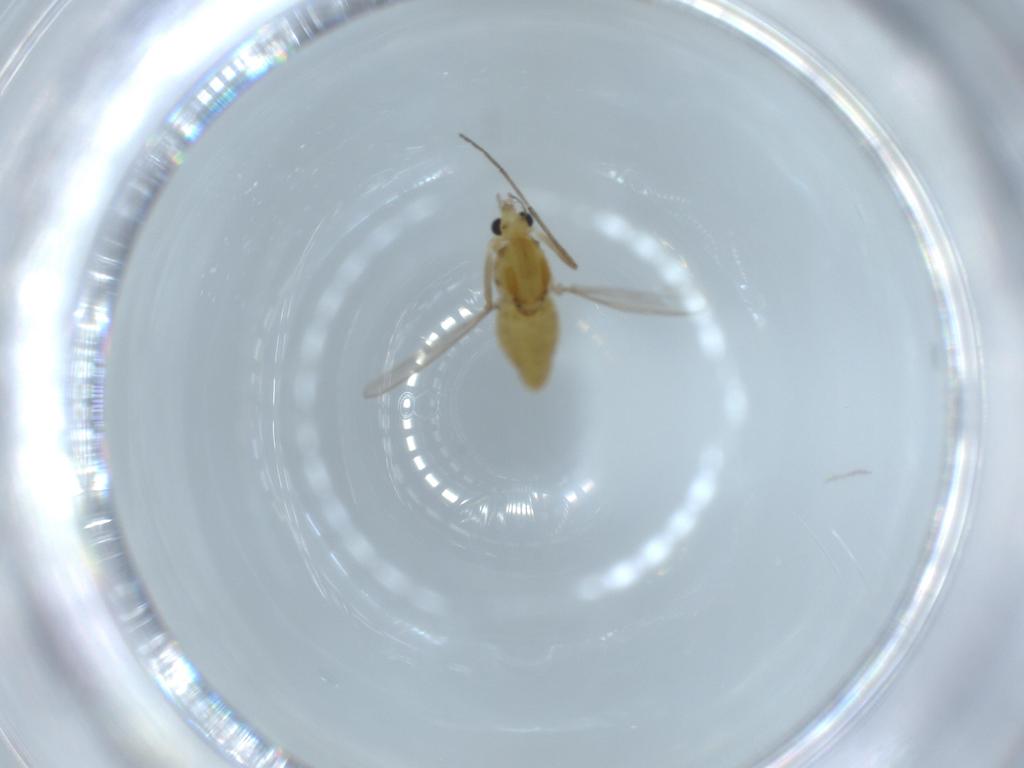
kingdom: Animalia
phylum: Arthropoda
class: Insecta
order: Diptera
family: Chironomidae
